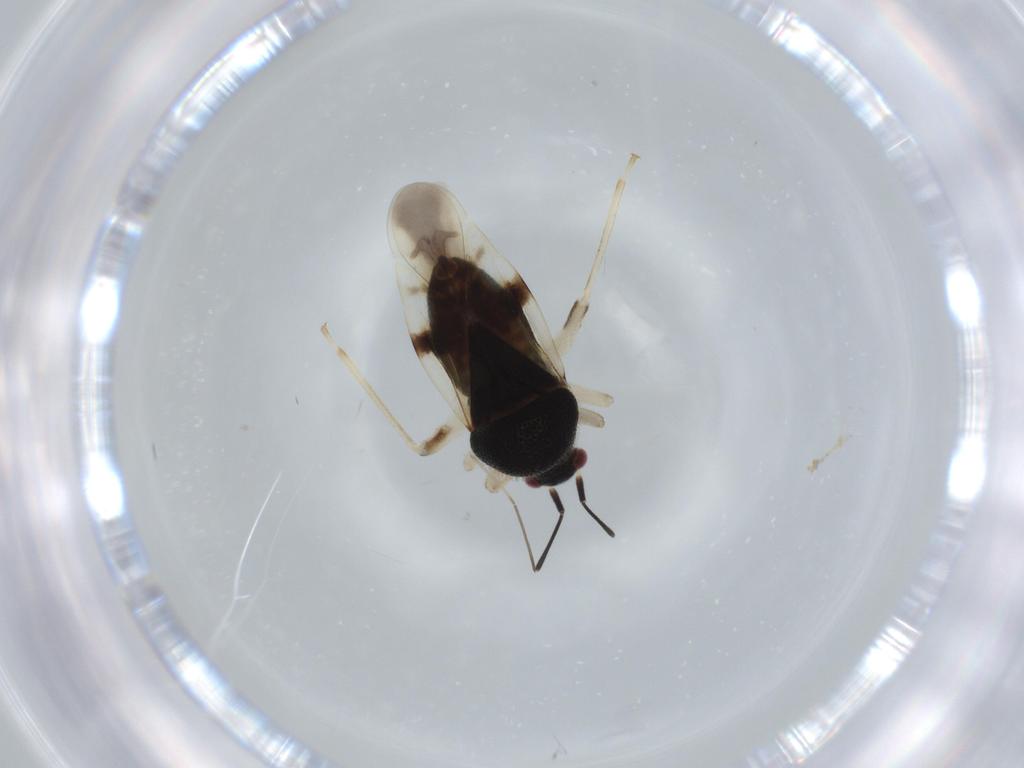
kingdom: Animalia
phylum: Arthropoda
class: Insecta
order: Hemiptera
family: Miridae
